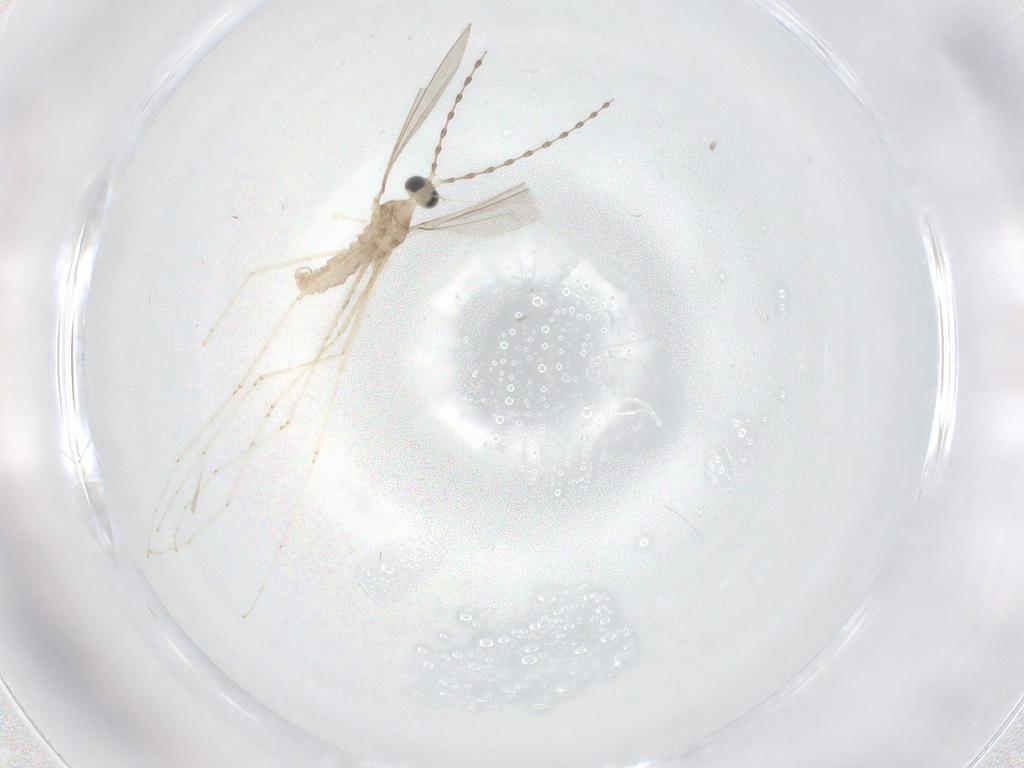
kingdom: Animalia
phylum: Arthropoda
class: Insecta
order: Diptera
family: Cecidomyiidae
